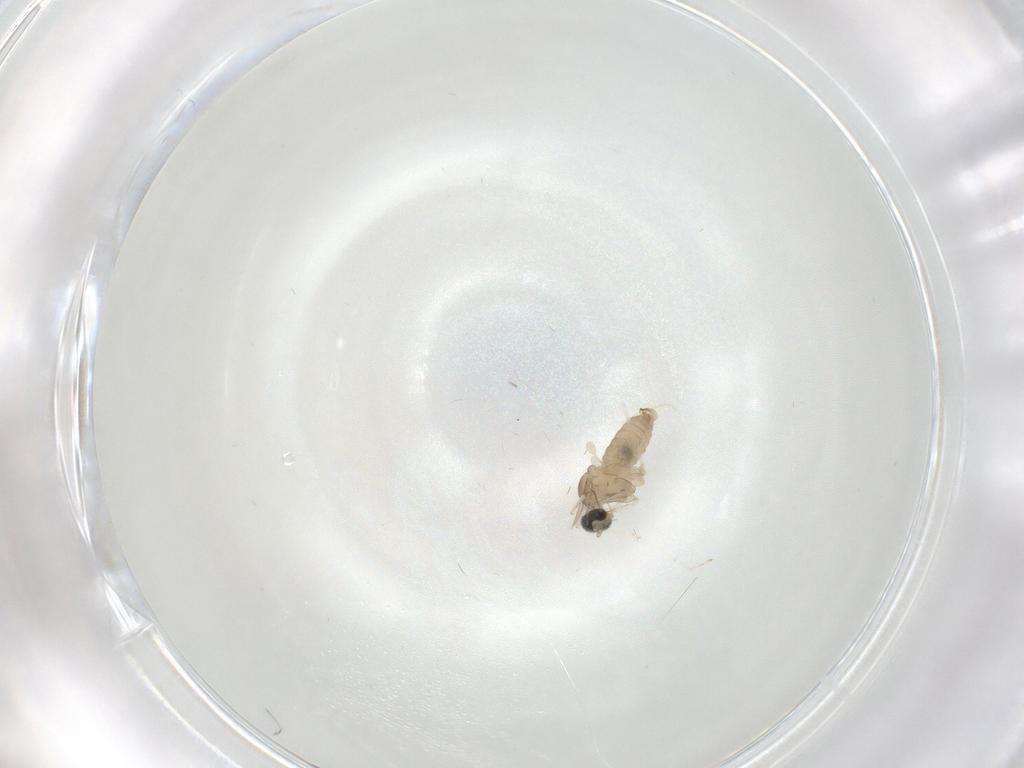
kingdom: Animalia
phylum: Arthropoda
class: Insecta
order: Diptera
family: Cecidomyiidae
